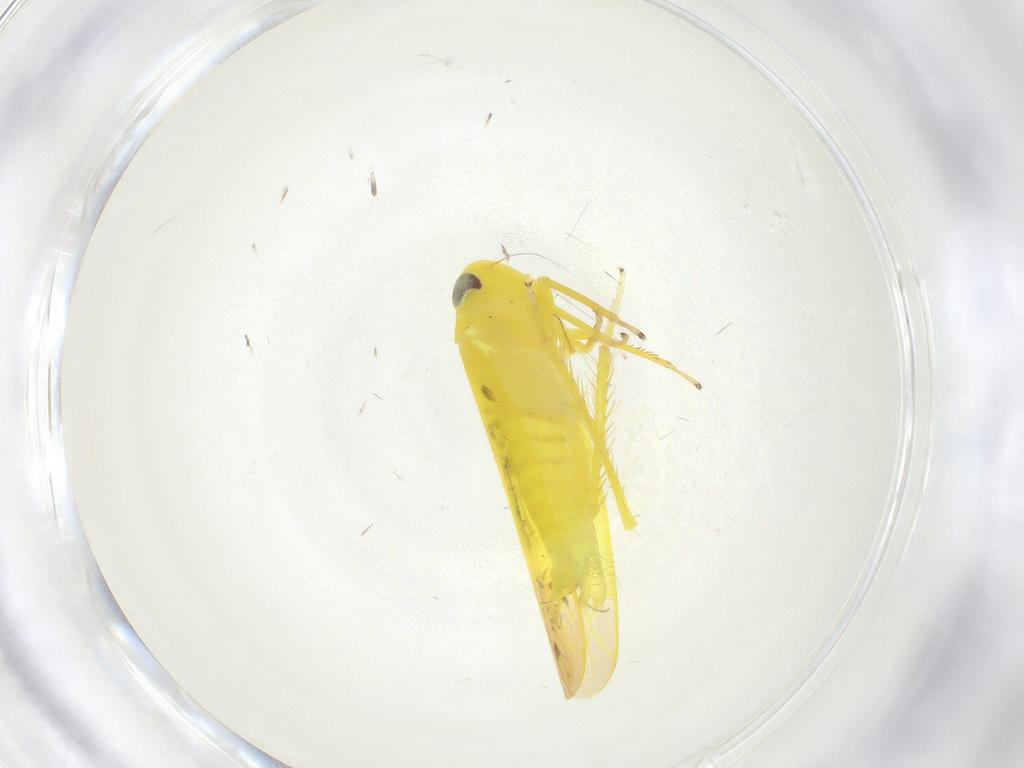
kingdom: Animalia
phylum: Arthropoda
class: Insecta
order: Hemiptera
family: Cicadellidae
